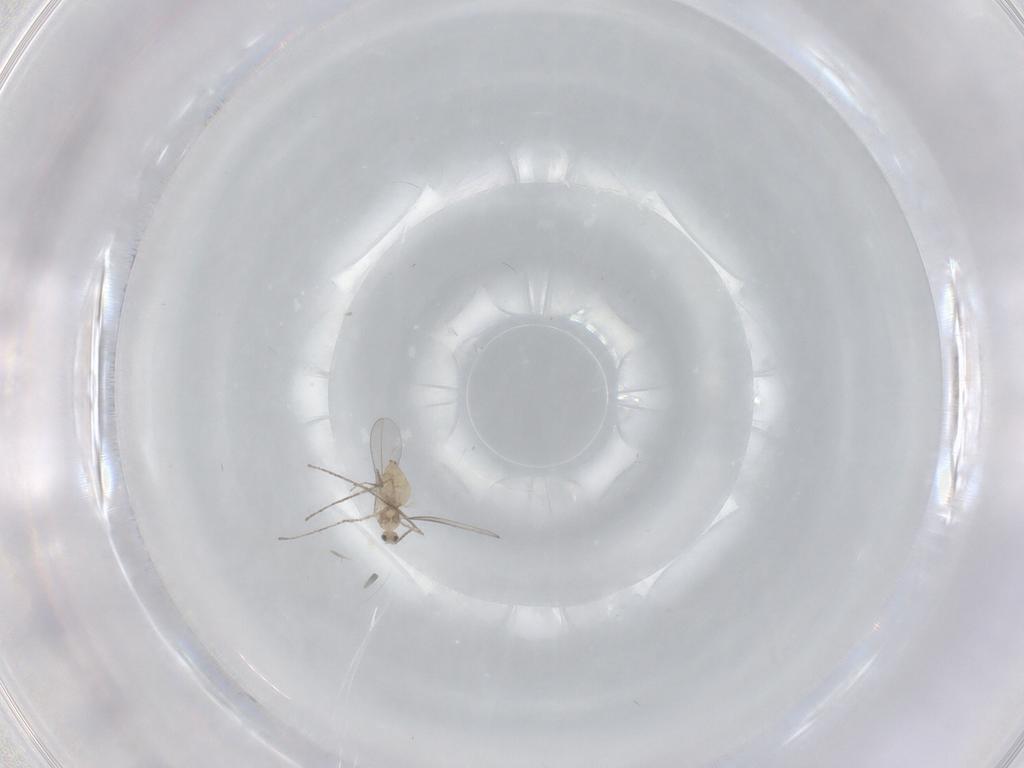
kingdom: Animalia
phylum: Arthropoda
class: Insecta
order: Diptera
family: Cecidomyiidae
